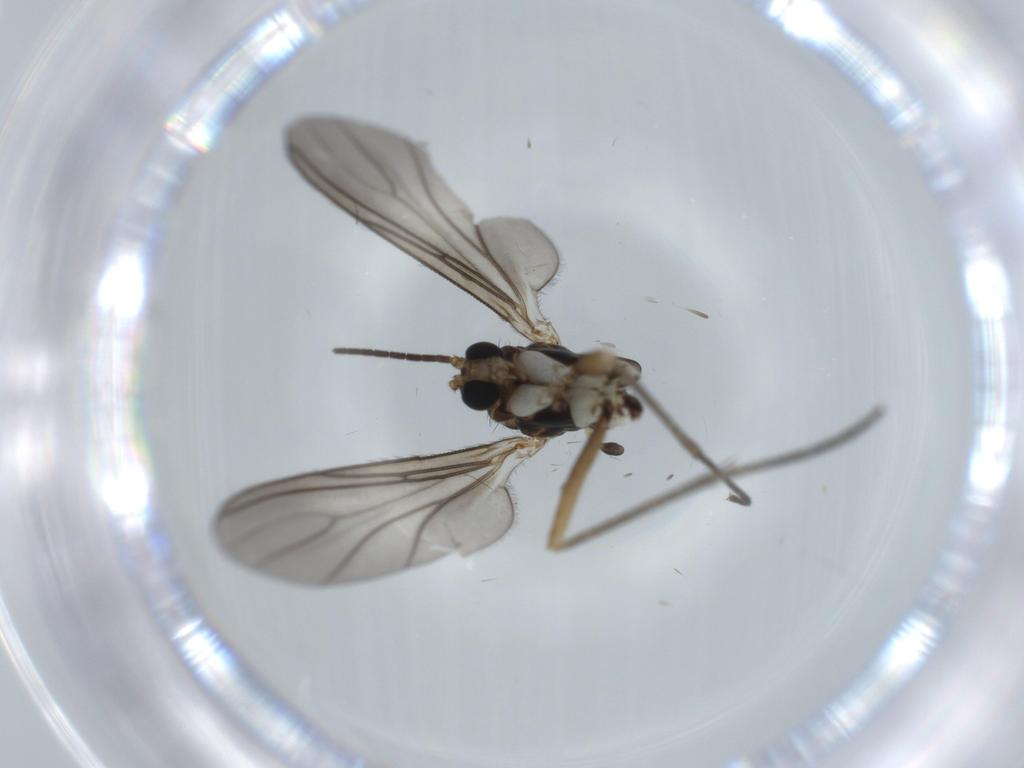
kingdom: Animalia
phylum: Arthropoda
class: Insecta
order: Diptera
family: Sciaridae
